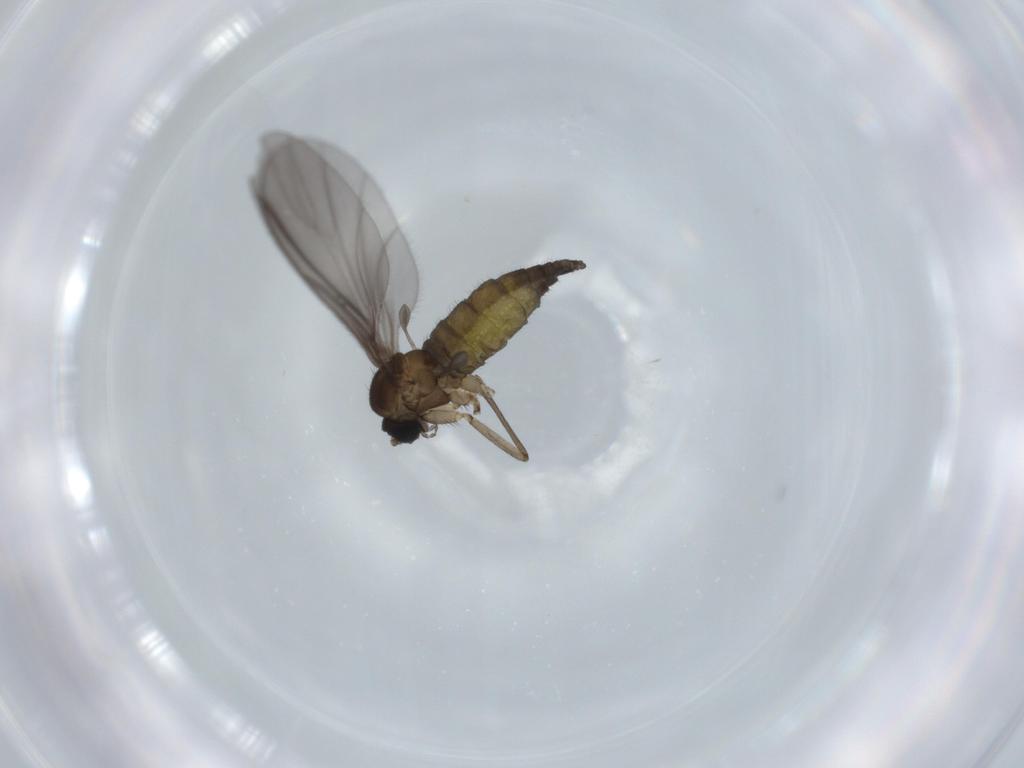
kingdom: Animalia
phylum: Arthropoda
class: Insecta
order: Diptera
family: Sciaridae
